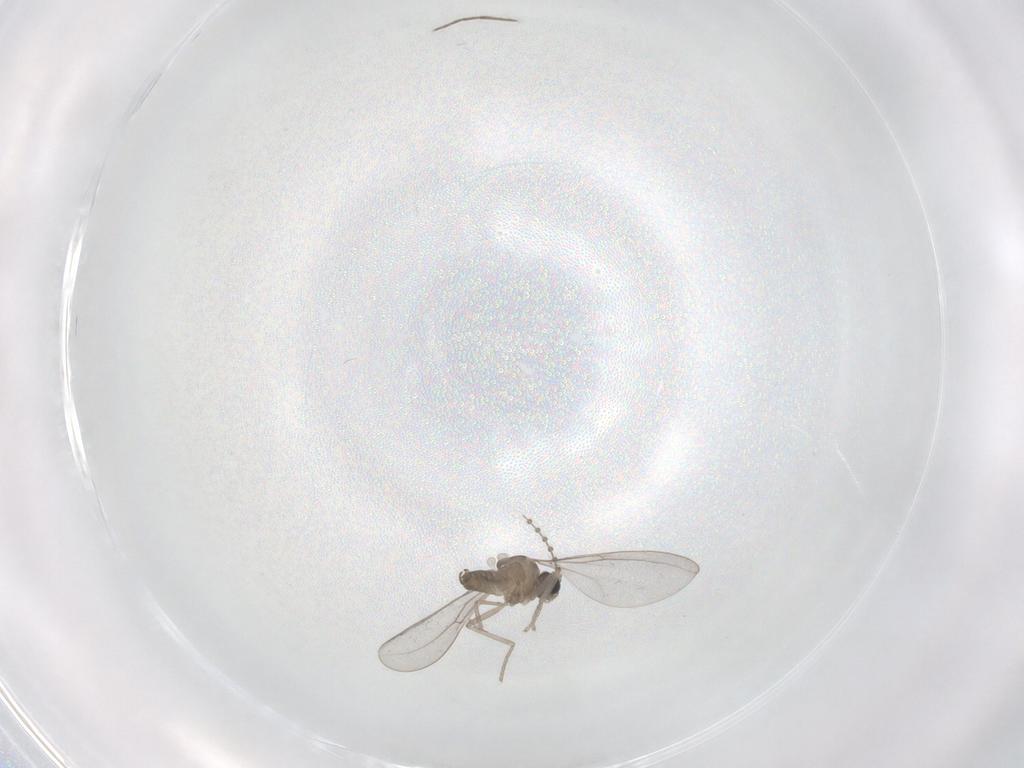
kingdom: Animalia
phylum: Arthropoda
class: Insecta
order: Diptera
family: Cecidomyiidae
